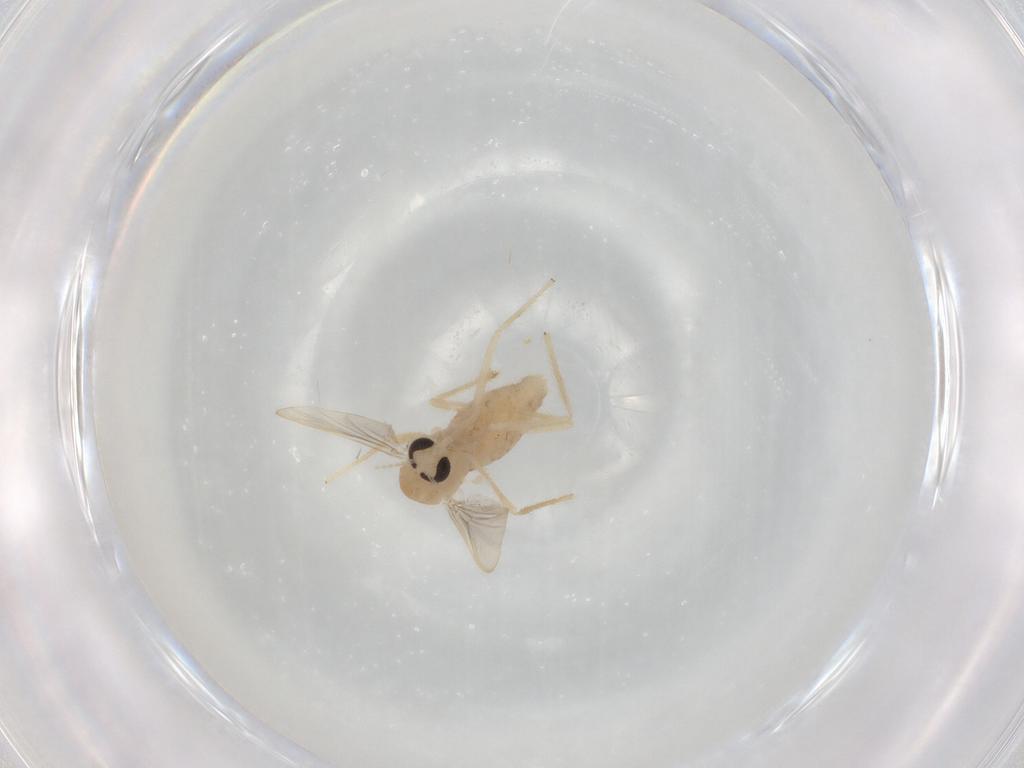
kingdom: Animalia
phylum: Arthropoda
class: Insecta
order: Diptera
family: Chironomidae
